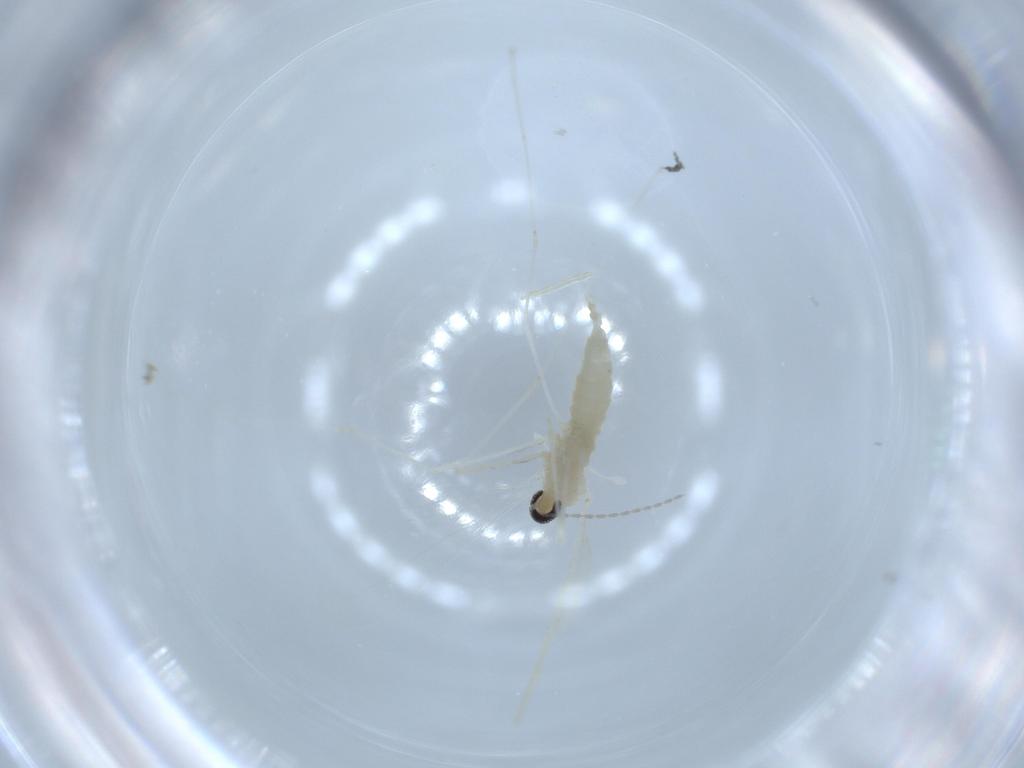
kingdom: Animalia
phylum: Arthropoda
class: Insecta
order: Diptera
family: Cecidomyiidae
